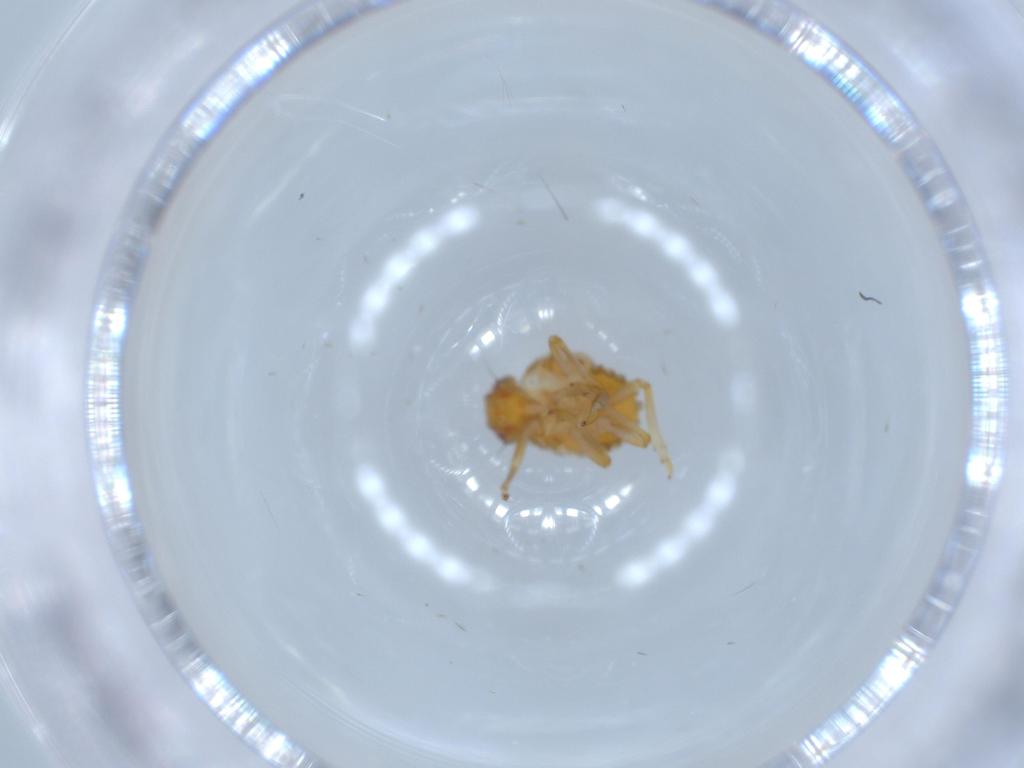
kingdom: Animalia
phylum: Arthropoda
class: Insecta
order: Hemiptera
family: Issidae
